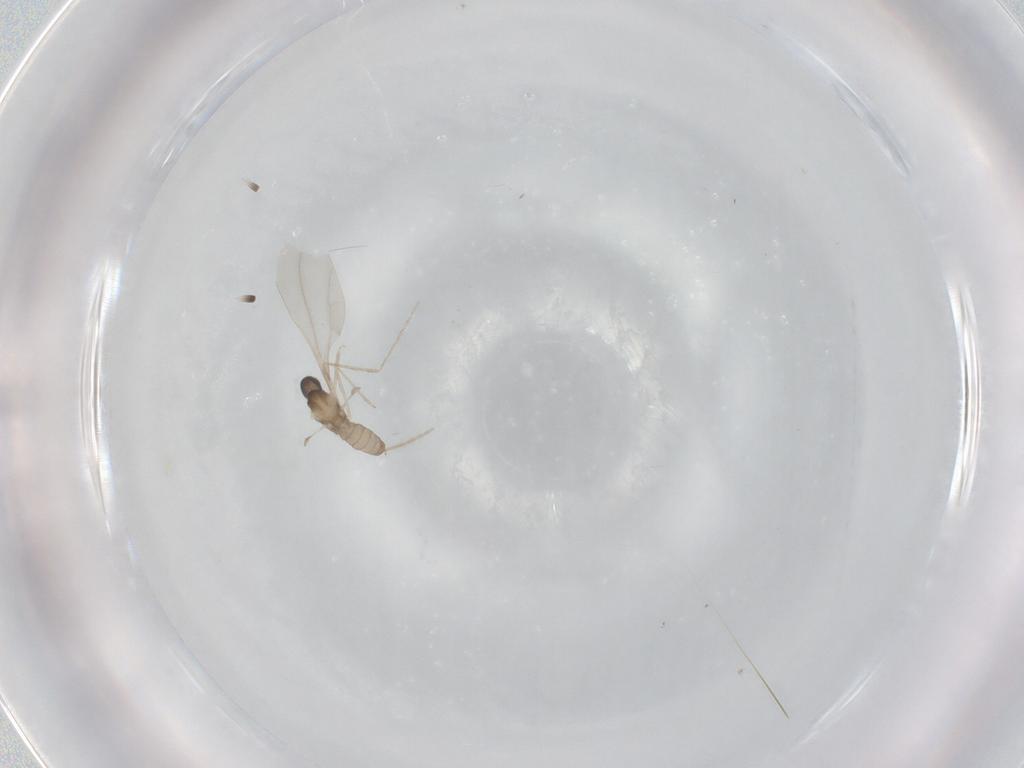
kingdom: Animalia
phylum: Arthropoda
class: Insecta
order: Diptera
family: Cecidomyiidae
